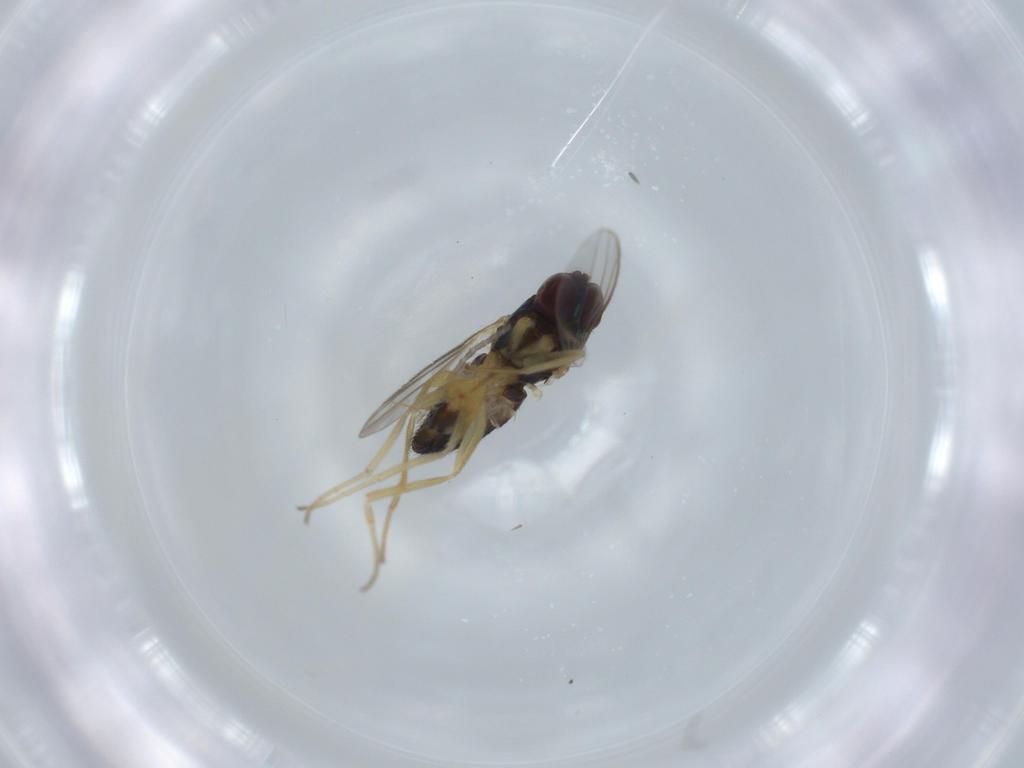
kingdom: Animalia
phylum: Arthropoda
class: Insecta
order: Diptera
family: Dolichopodidae
